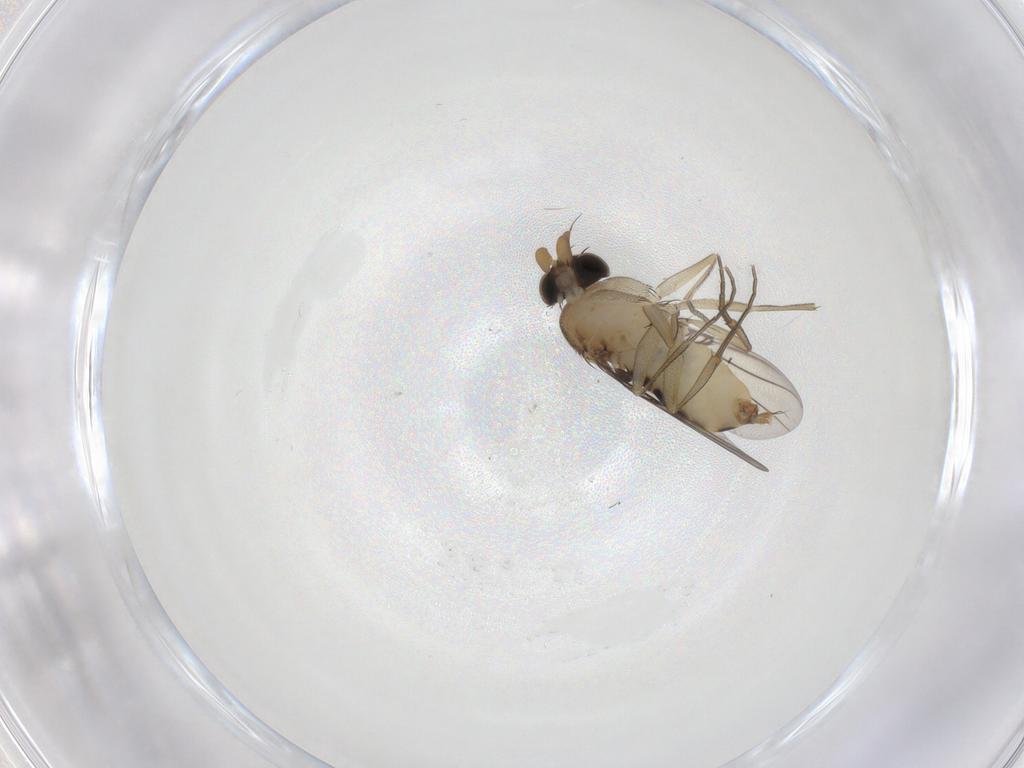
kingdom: Animalia
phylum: Arthropoda
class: Insecta
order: Diptera
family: Phoridae
